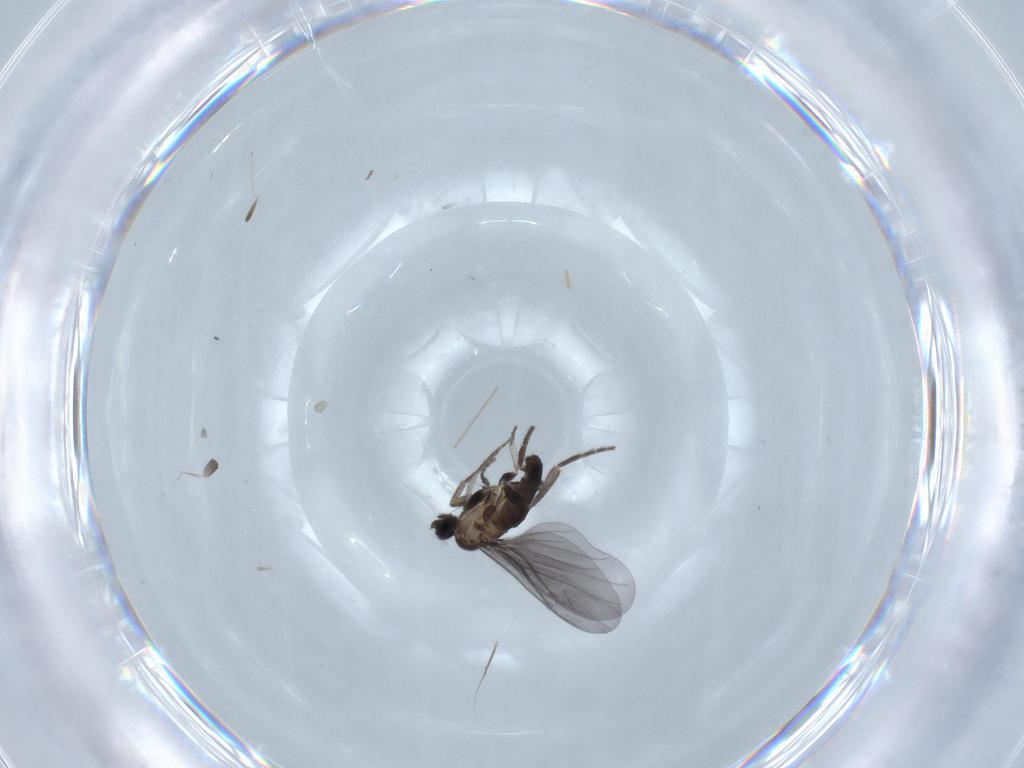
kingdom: Animalia
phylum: Arthropoda
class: Insecta
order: Diptera
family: Phoridae
